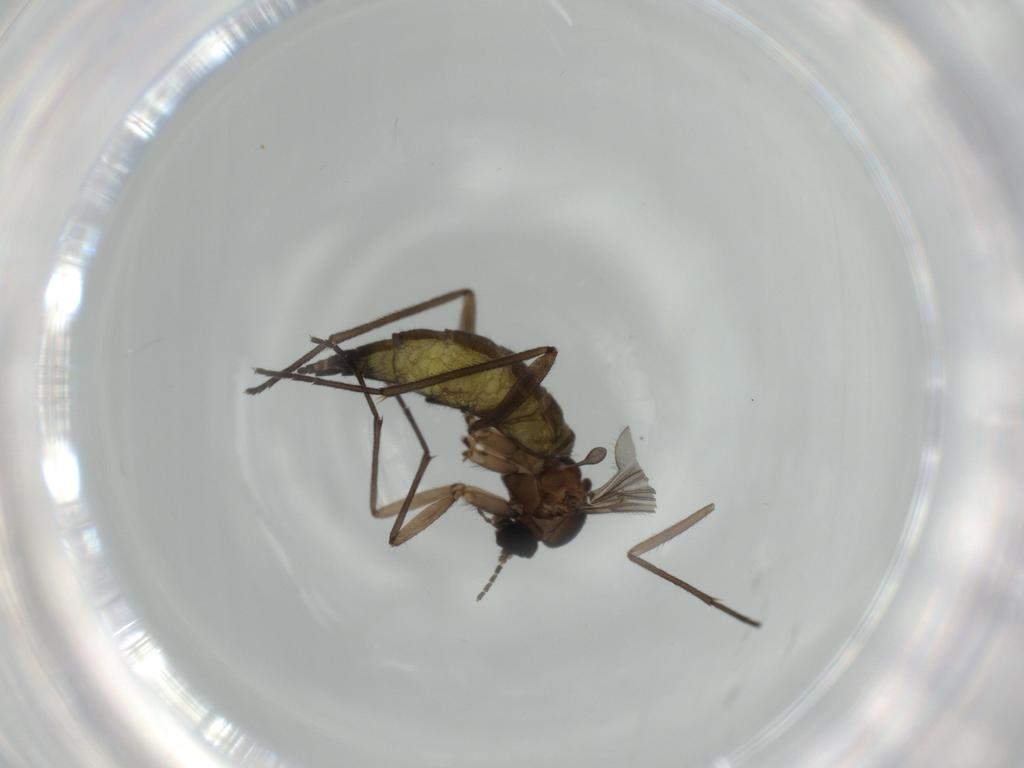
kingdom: Animalia
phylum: Arthropoda
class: Insecta
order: Diptera
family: Sciaridae
